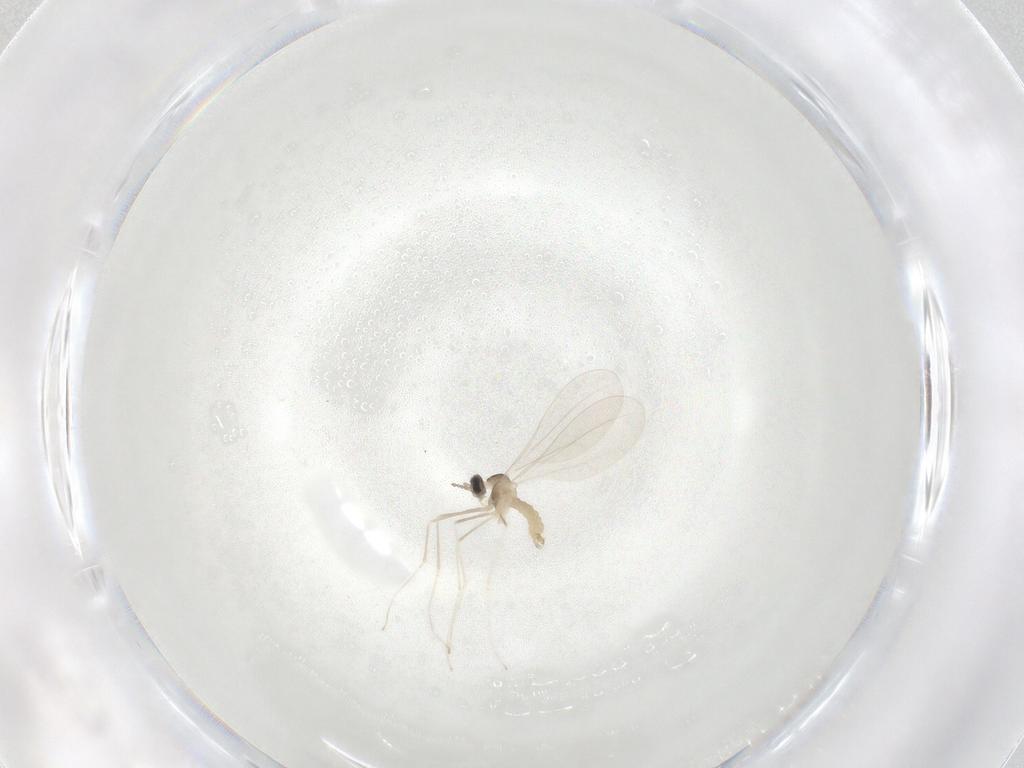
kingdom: Animalia
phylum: Arthropoda
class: Insecta
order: Diptera
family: Cecidomyiidae
